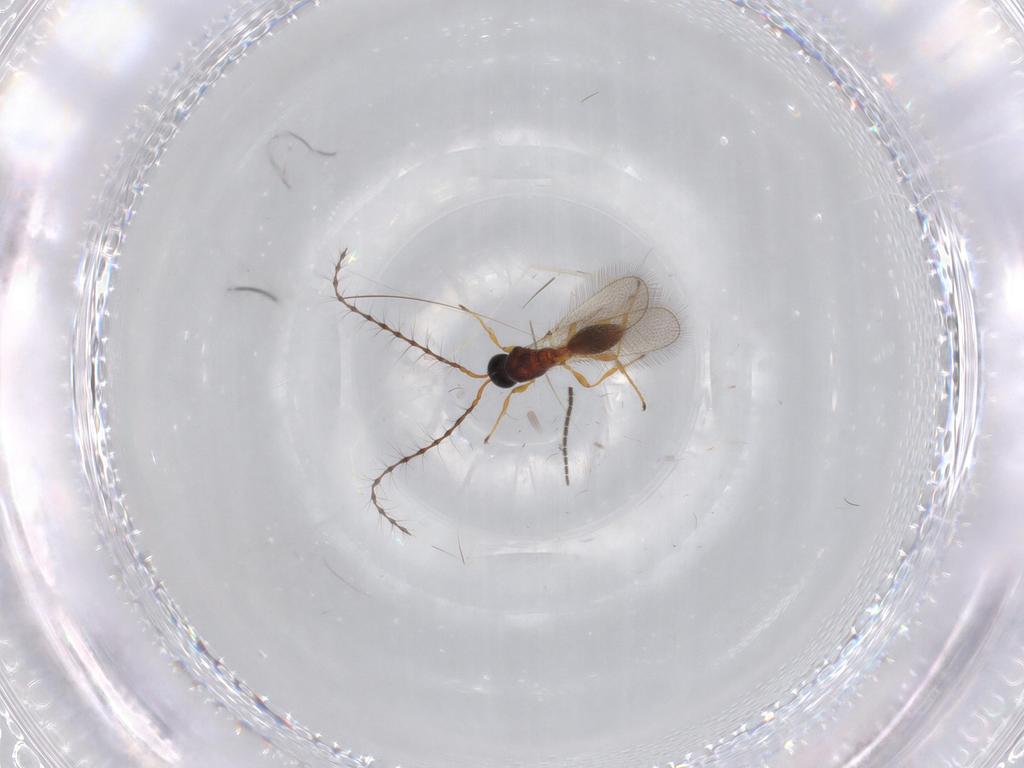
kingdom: Animalia
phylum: Arthropoda
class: Insecta
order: Hymenoptera
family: Diapriidae
